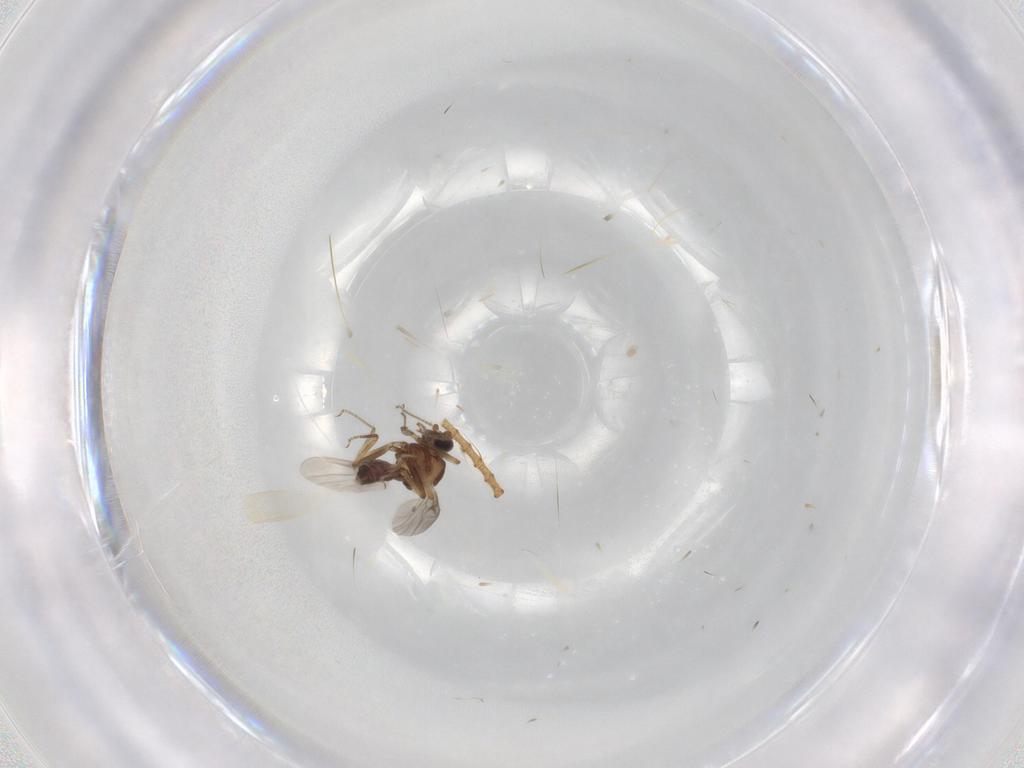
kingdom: Animalia
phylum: Arthropoda
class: Insecta
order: Diptera
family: Ceratopogonidae
